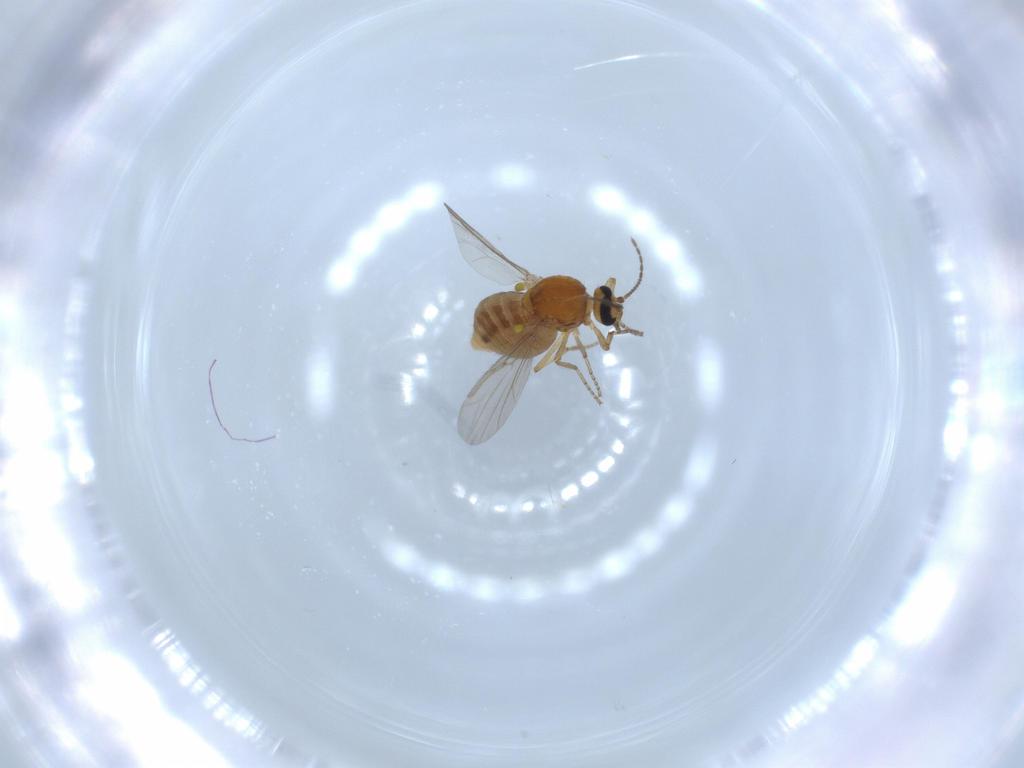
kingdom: Animalia
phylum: Arthropoda
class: Insecta
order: Diptera
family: Ceratopogonidae
